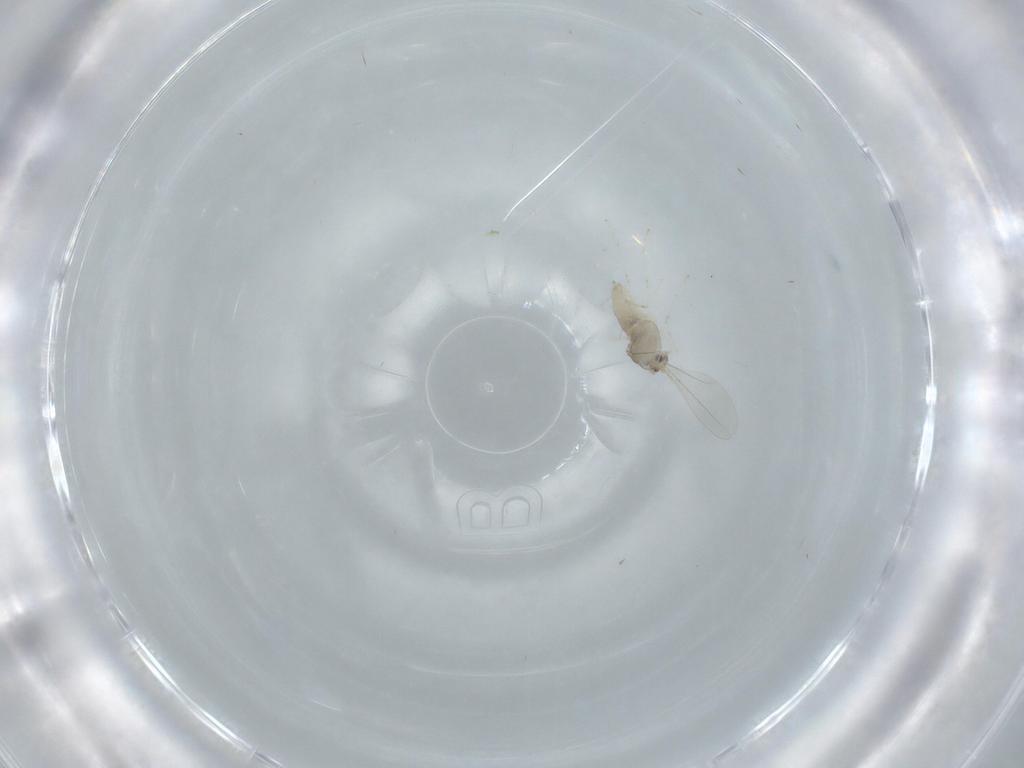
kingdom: Animalia
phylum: Arthropoda
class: Insecta
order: Diptera
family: Cecidomyiidae
